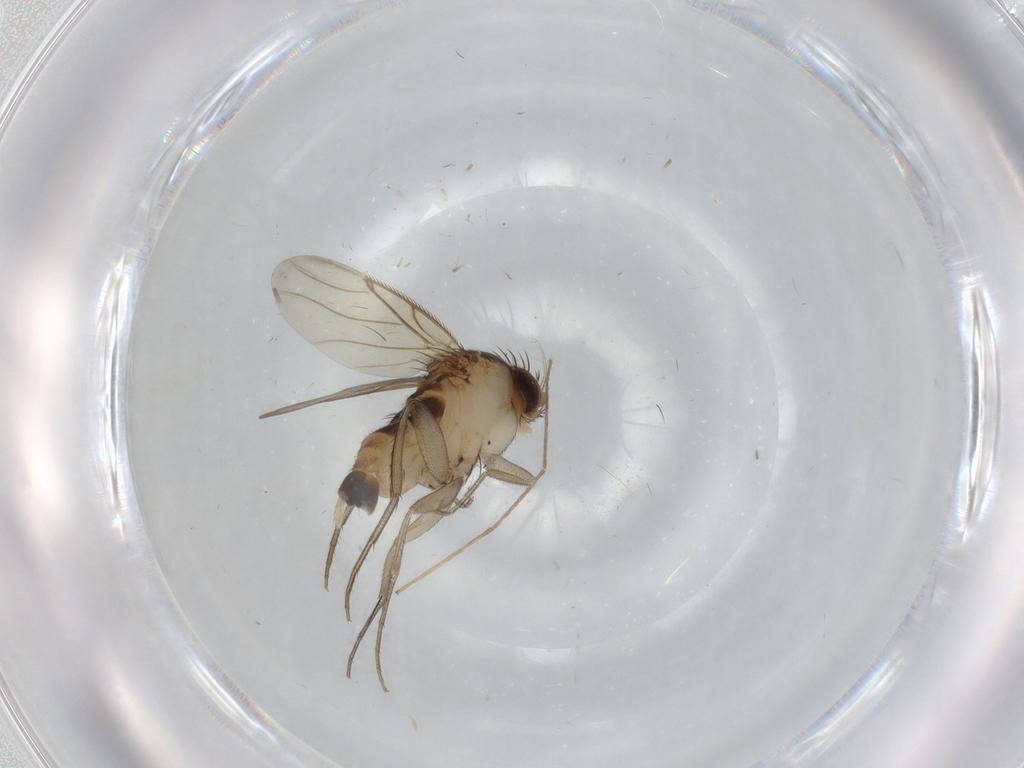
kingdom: Animalia
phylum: Arthropoda
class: Insecta
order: Diptera
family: Phoridae
